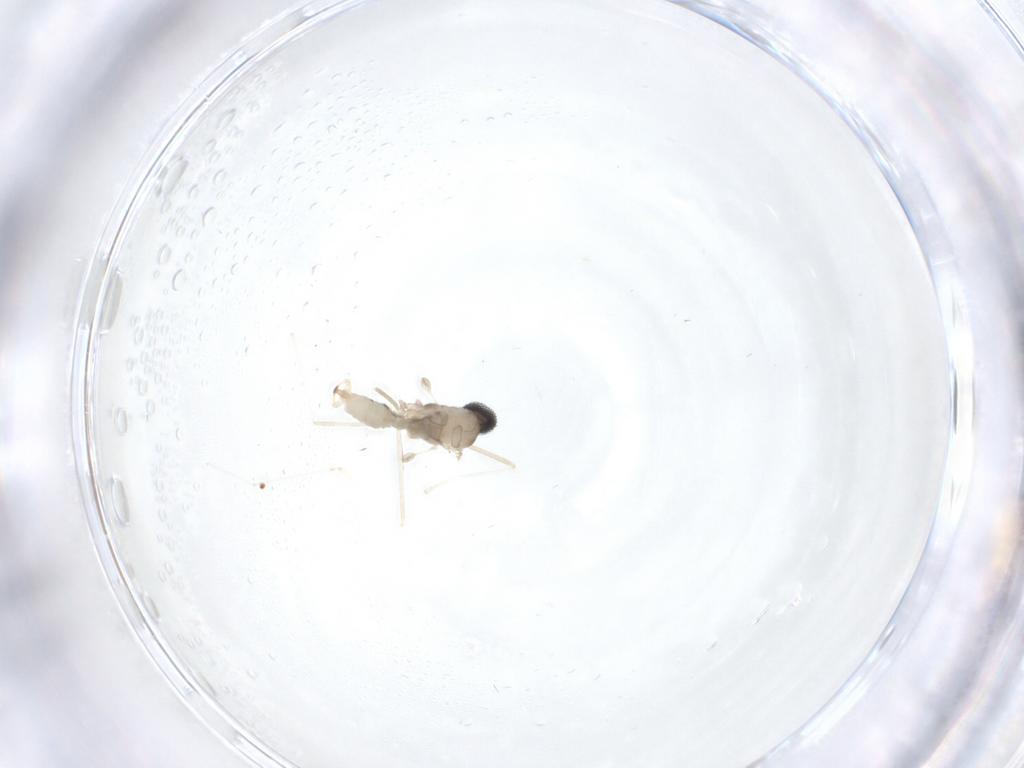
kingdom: Animalia
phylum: Arthropoda
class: Insecta
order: Diptera
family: Cecidomyiidae
